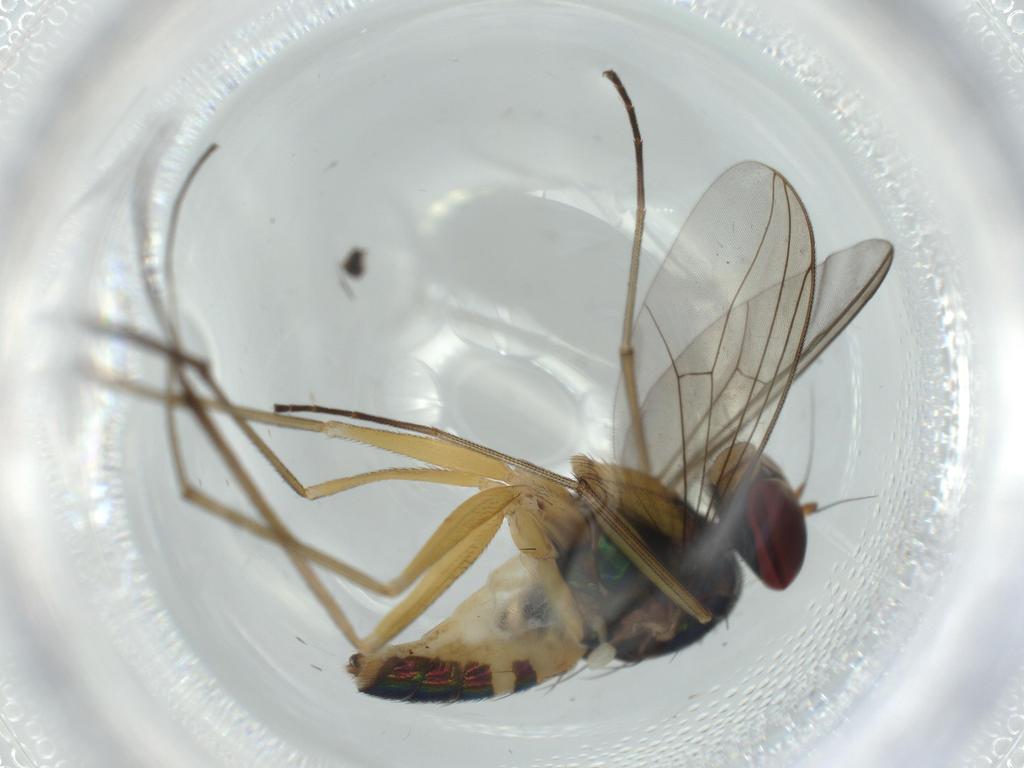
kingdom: Animalia
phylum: Arthropoda
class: Insecta
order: Diptera
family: Dolichopodidae
